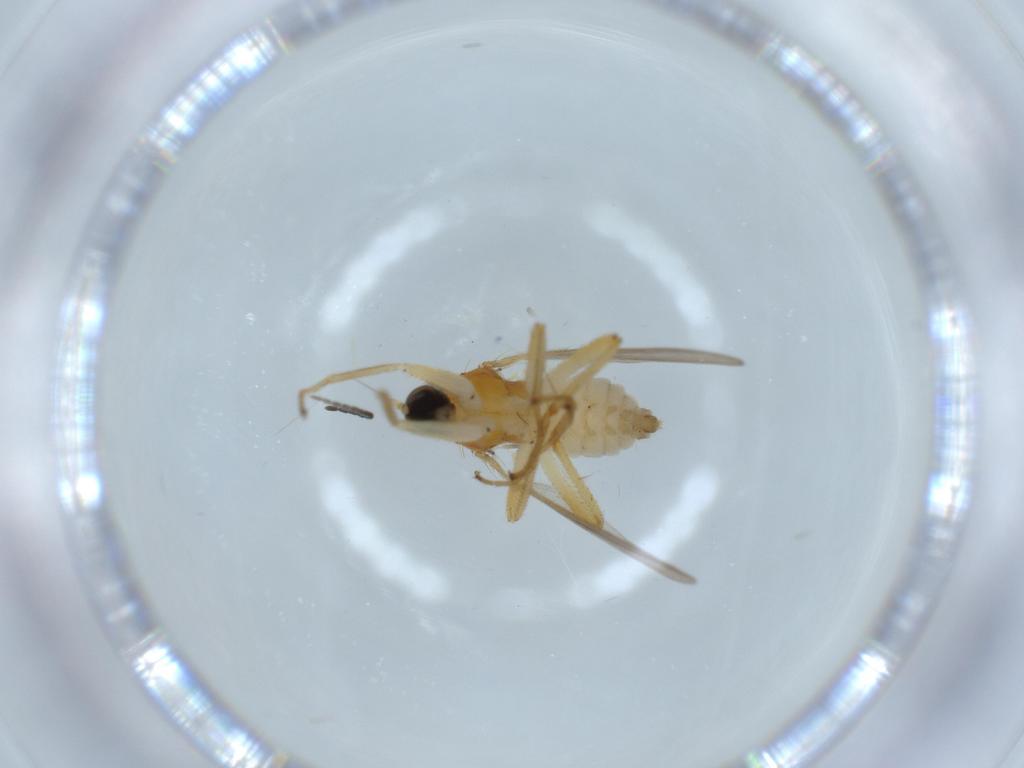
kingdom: Animalia
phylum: Arthropoda
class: Insecta
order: Diptera
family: Hybotidae
